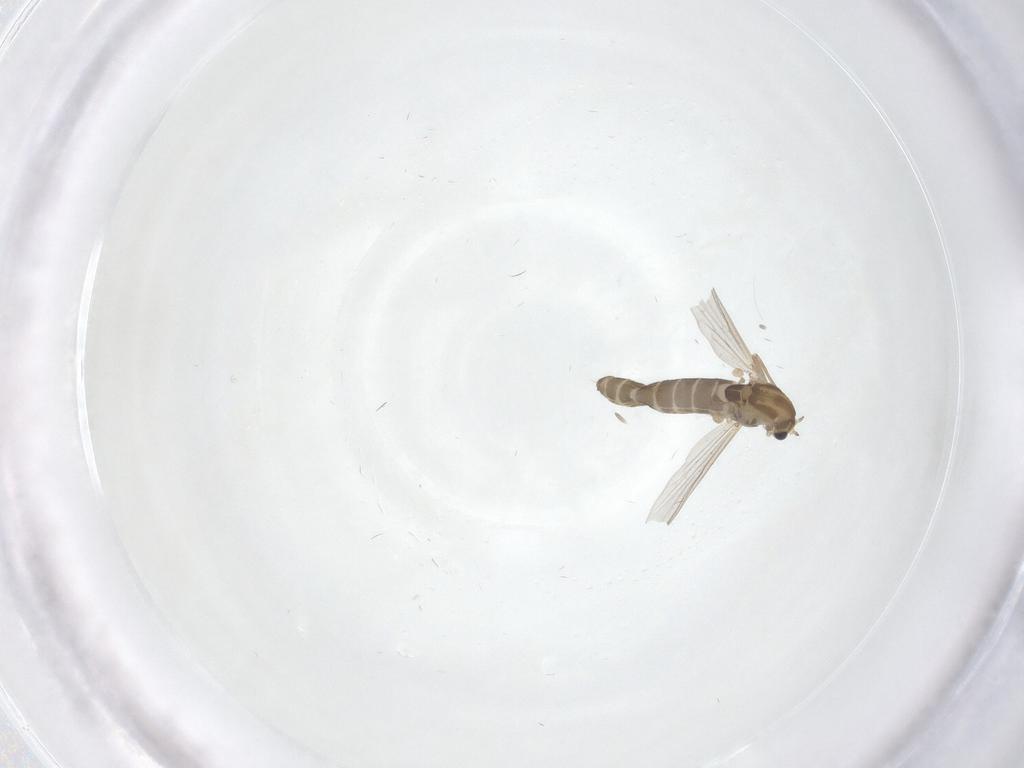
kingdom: Animalia
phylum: Arthropoda
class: Insecta
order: Diptera
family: Chironomidae
